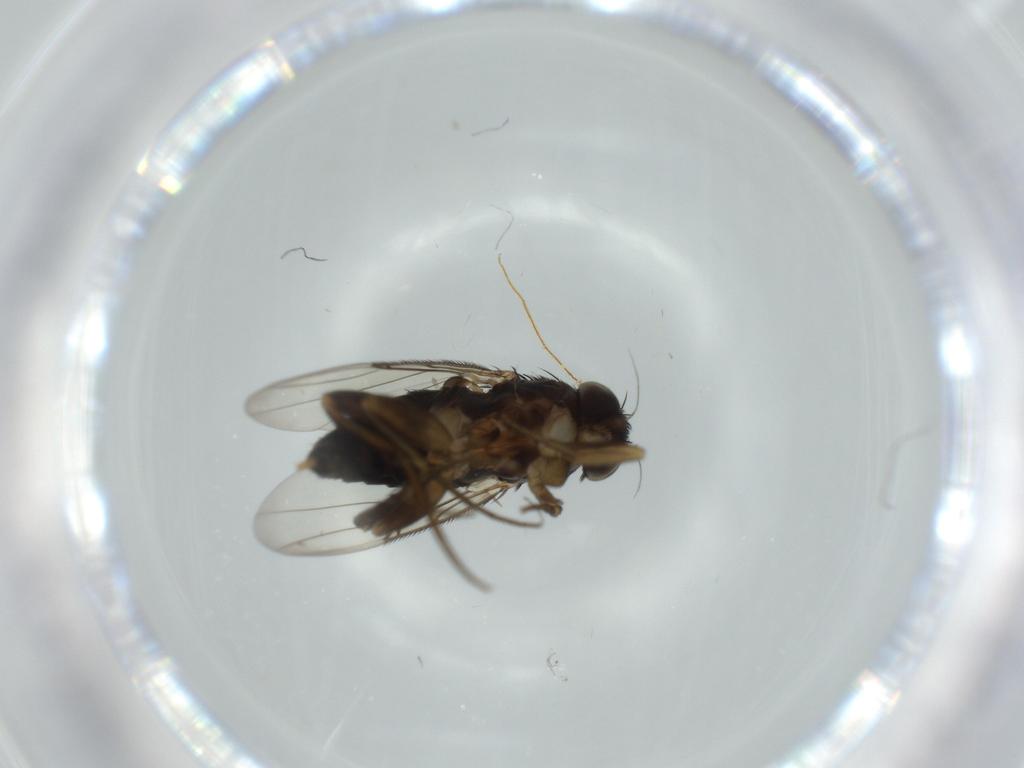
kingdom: Animalia
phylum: Arthropoda
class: Insecta
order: Diptera
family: Phoridae
